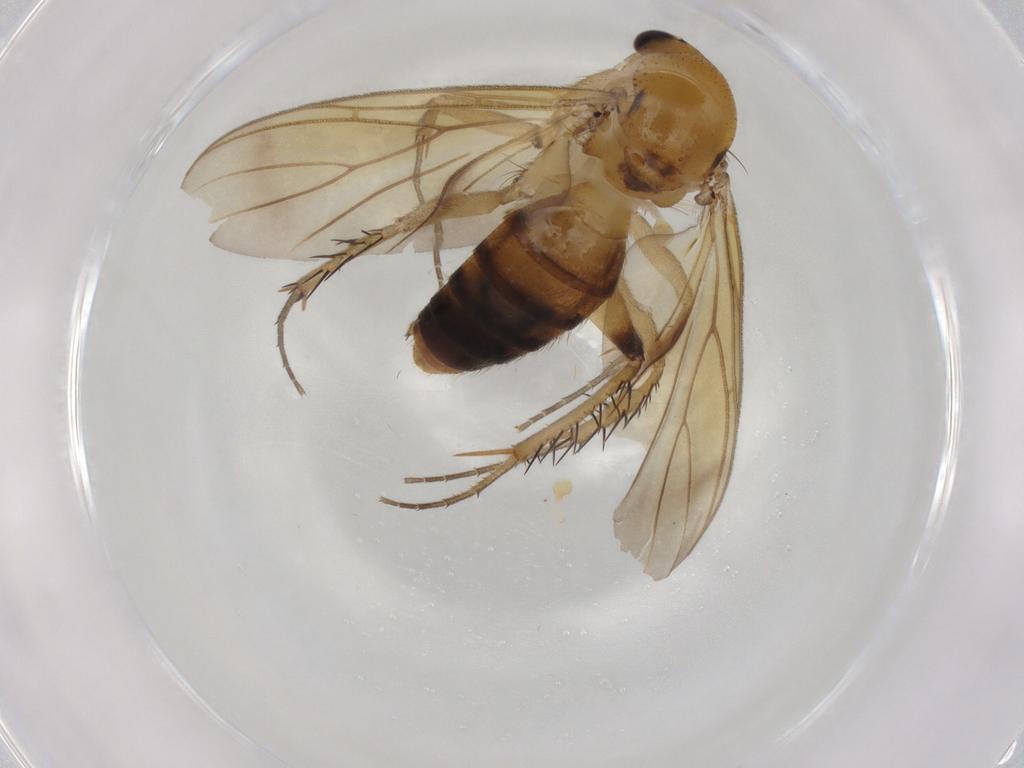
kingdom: Animalia
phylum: Arthropoda
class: Insecta
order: Diptera
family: Mycetophilidae
